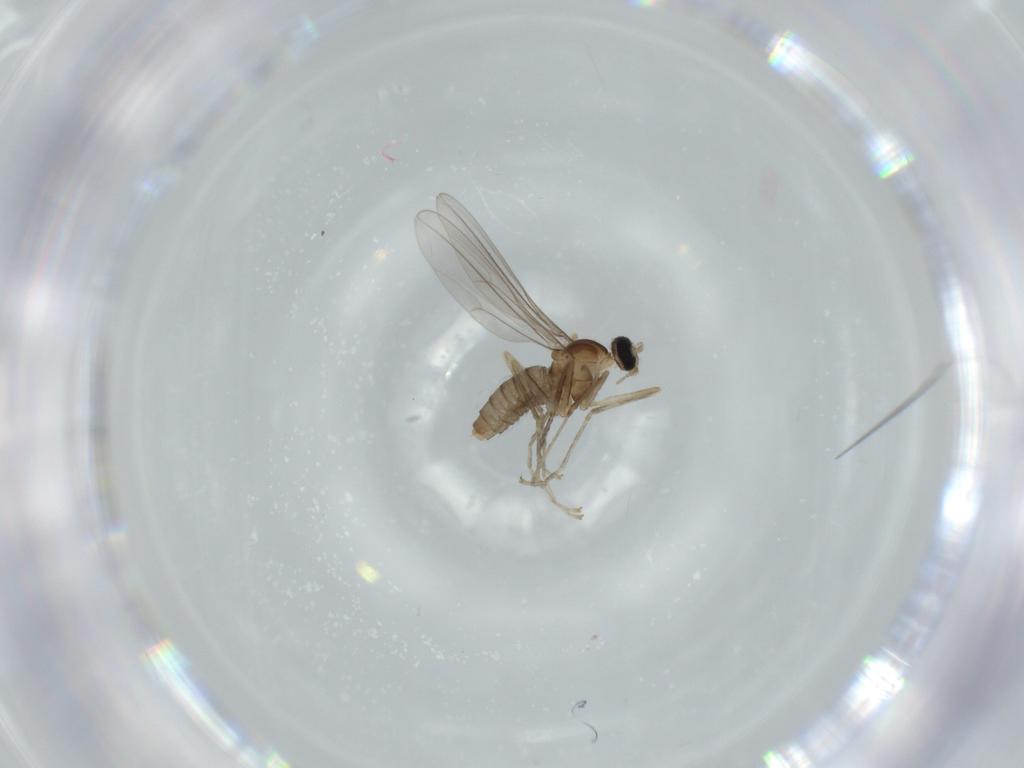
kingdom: Animalia
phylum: Arthropoda
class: Insecta
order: Diptera
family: Cecidomyiidae
